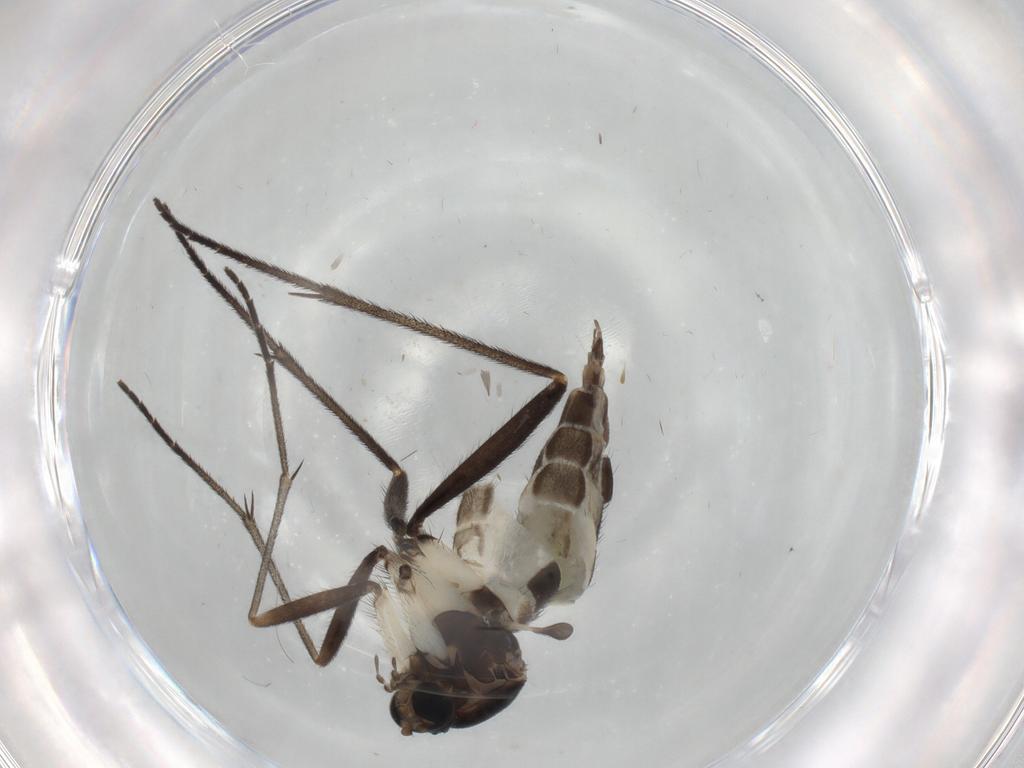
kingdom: Animalia
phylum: Arthropoda
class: Insecta
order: Diptera
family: Sciaridae
